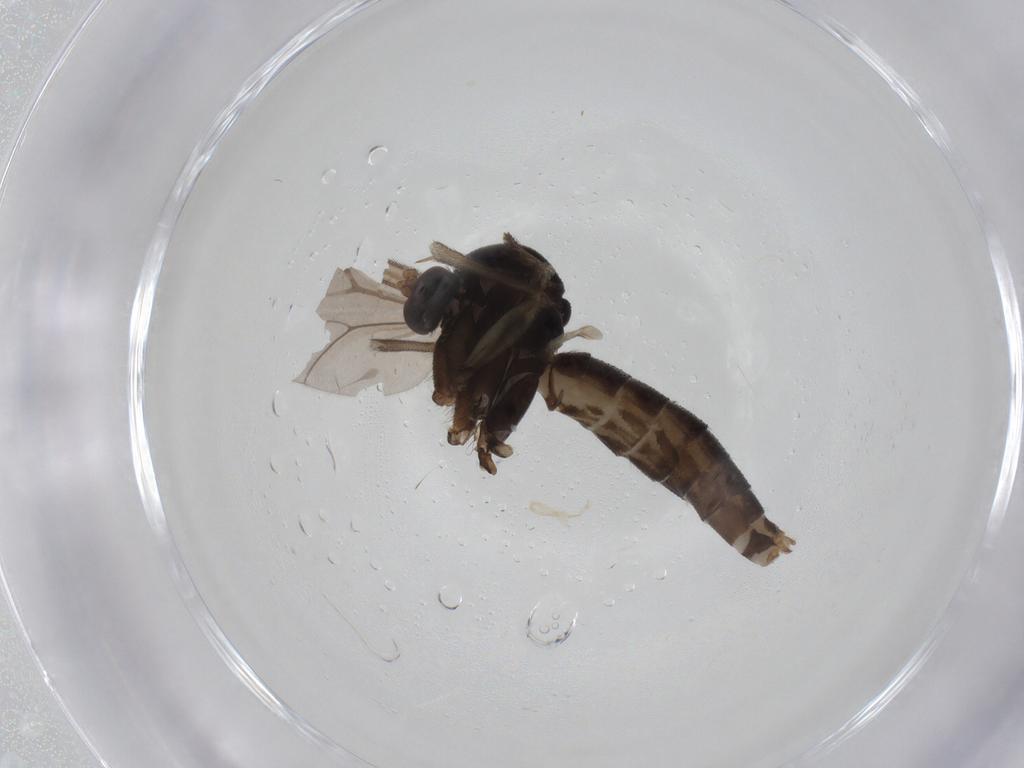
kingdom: Animalia
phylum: Arthropoda
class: Insecta
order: Diptera
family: Mycetophilidae
